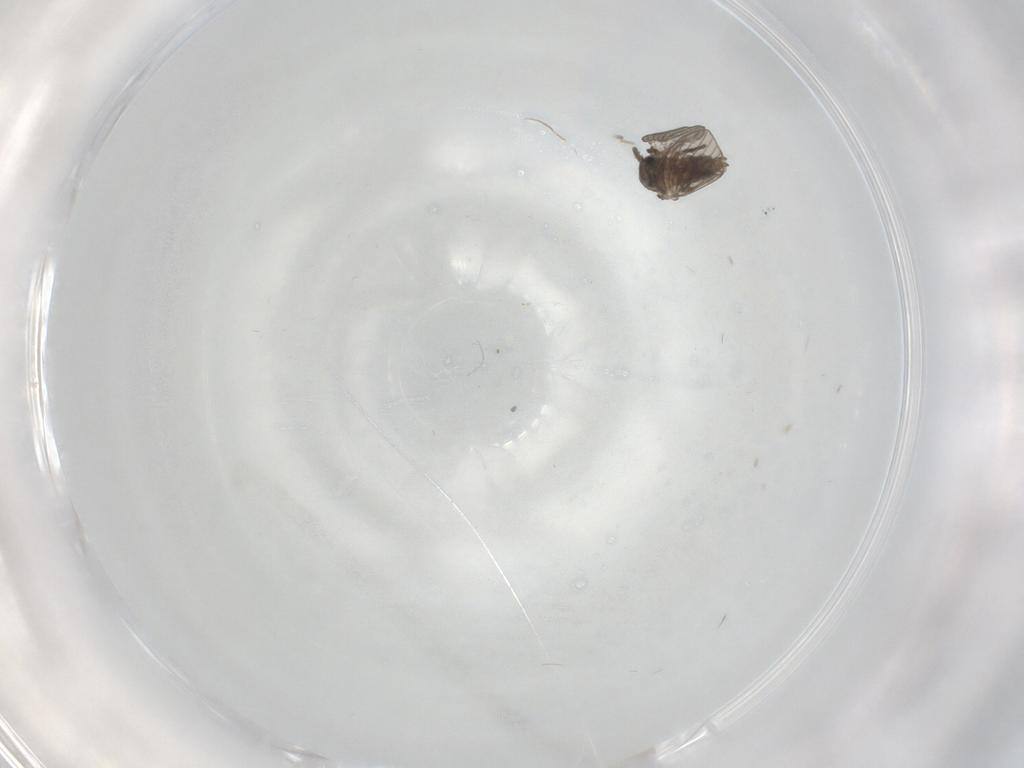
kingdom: Animalia
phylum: Arthropoda
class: Insecta
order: Diptera
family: Psychodidae
